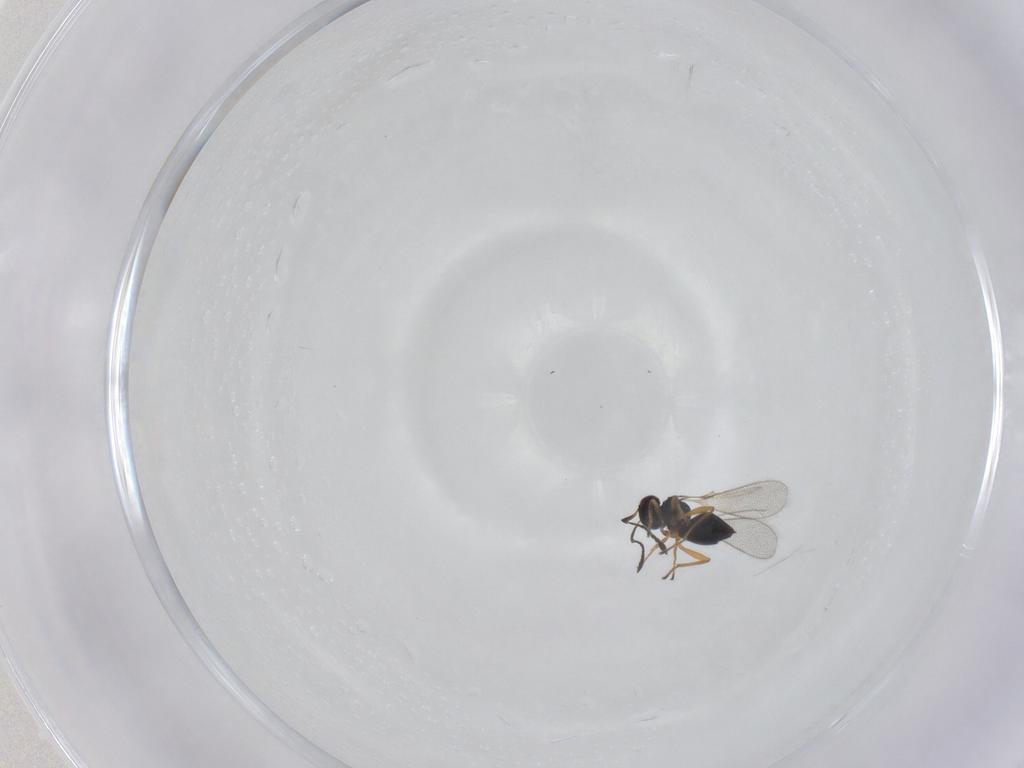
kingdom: Animalia
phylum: Arthropoda
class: Insecta
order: Hymenoptera
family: Mymaridae
